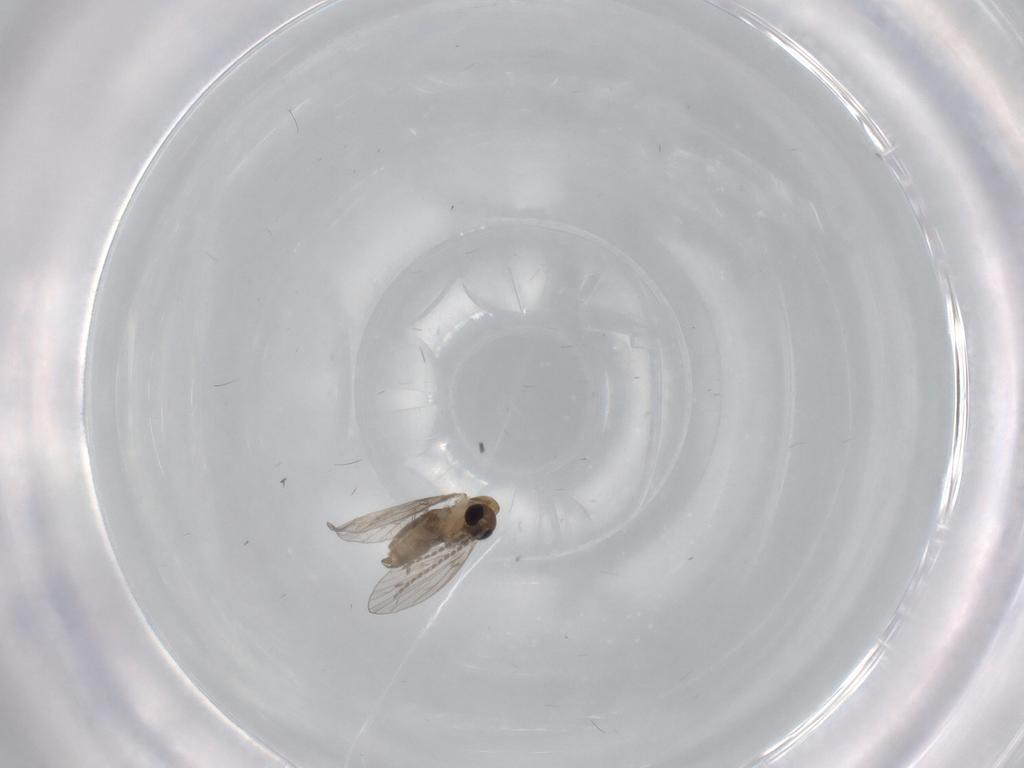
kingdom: Animalia
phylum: Arthropoda
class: Insecta
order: Diptera
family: Psychodidae
